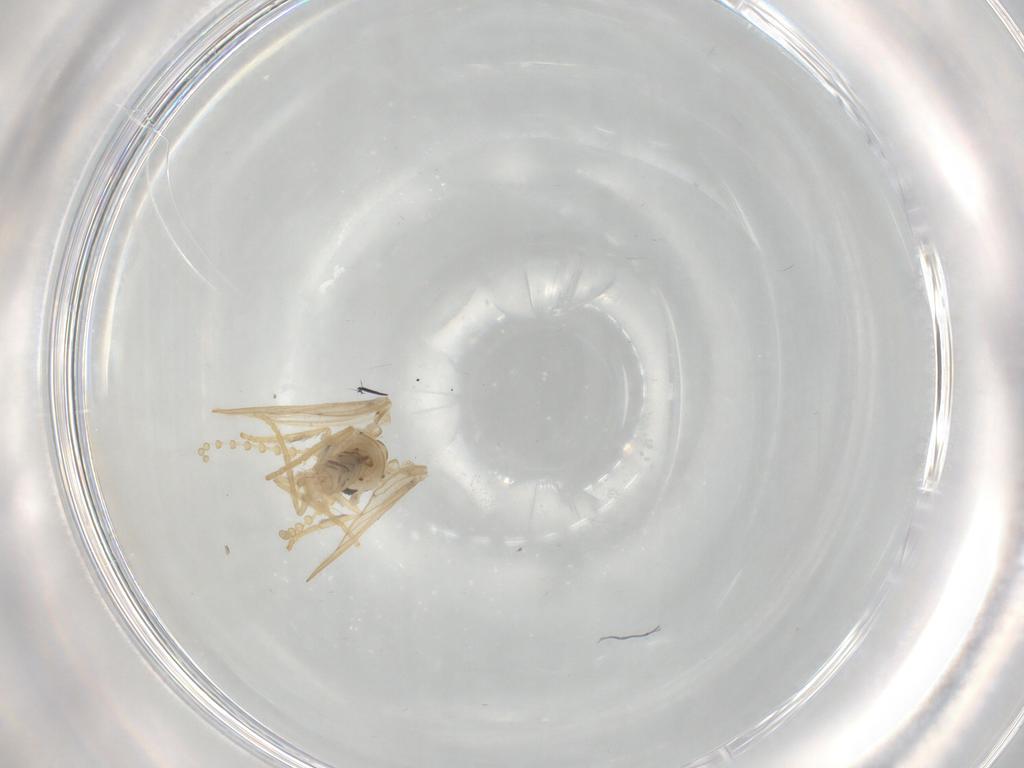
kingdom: Animalia
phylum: Arthropoda
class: Insecta
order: Diptera
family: Psychodidae
